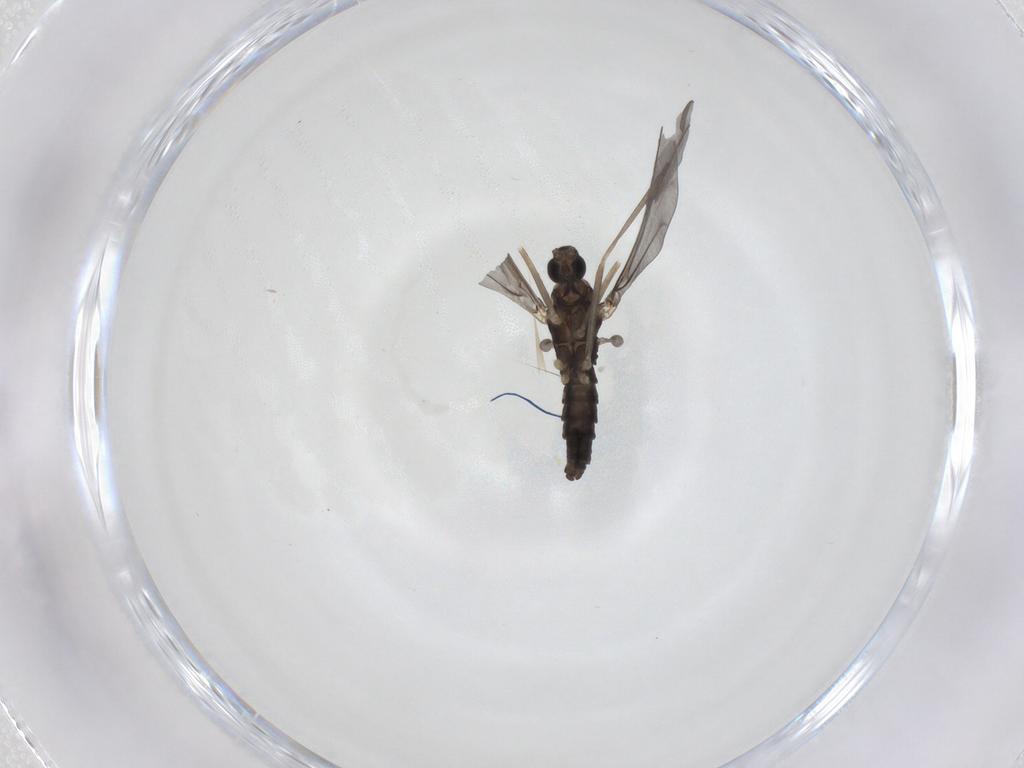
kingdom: Animalia
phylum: Arthropoda
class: Insecta
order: Diptera
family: Cecidomyiidae
